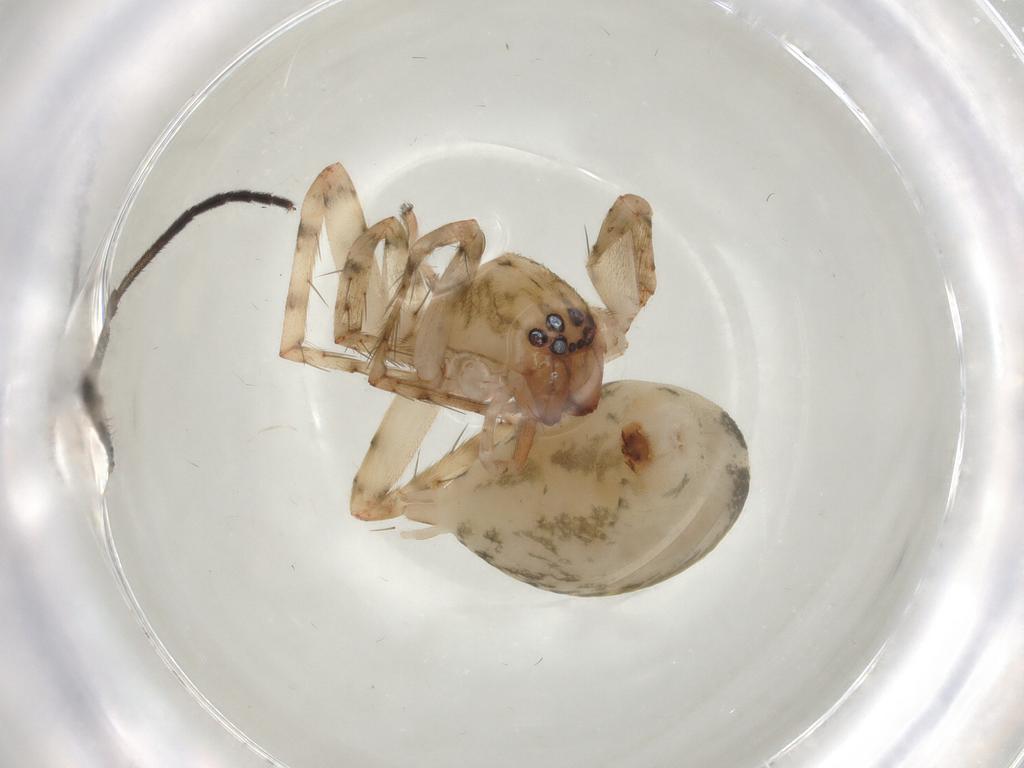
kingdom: Animalia
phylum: Arthropoda
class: Arachnida
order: Araneae
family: Anyphaenidae
